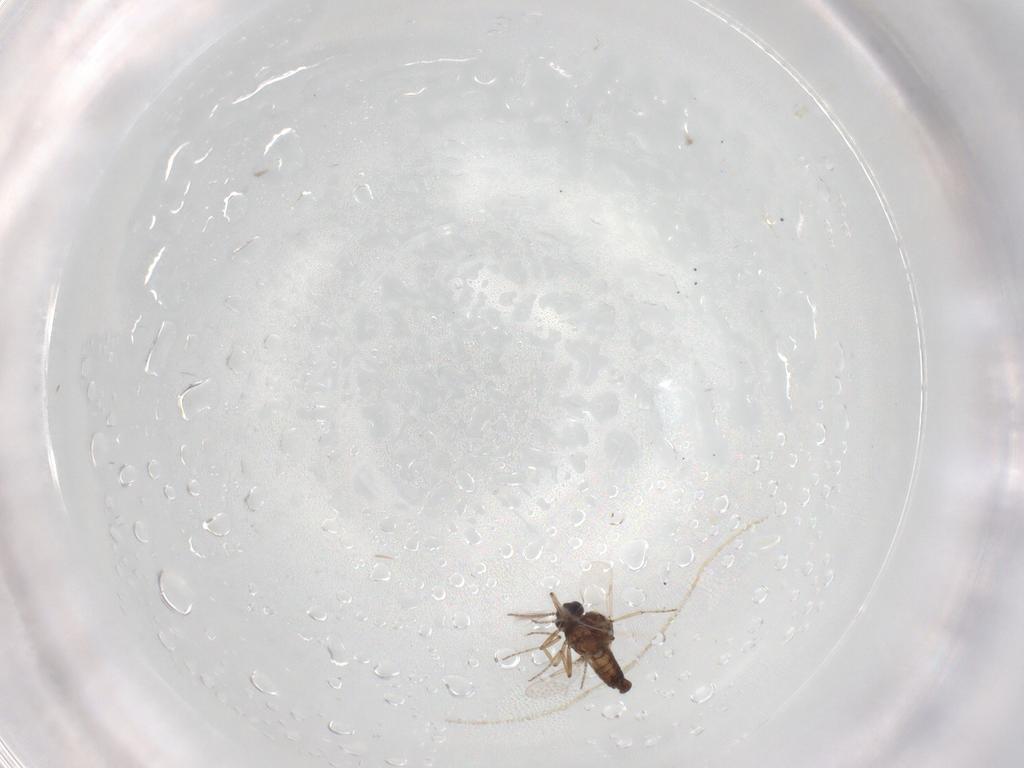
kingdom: Animalia
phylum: Arthropoda
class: Insecta
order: Diptera
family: Ceratopogonidae
